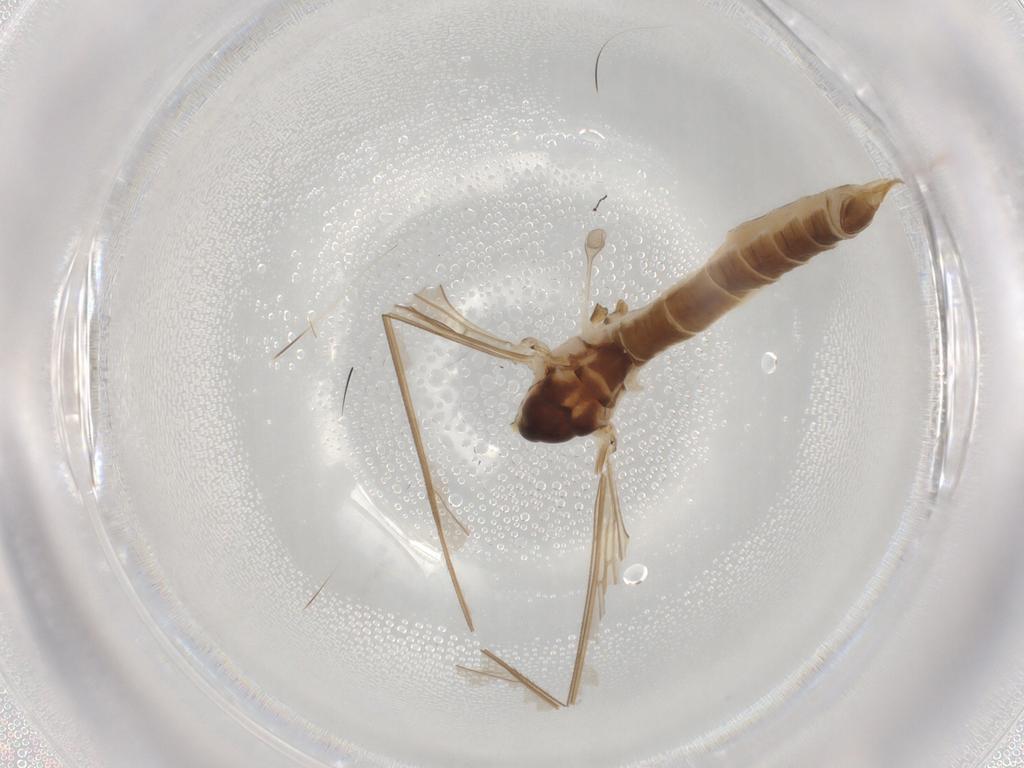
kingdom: Animalia
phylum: Arthropoda
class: Insecta
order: Diptera
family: Limoniidae
